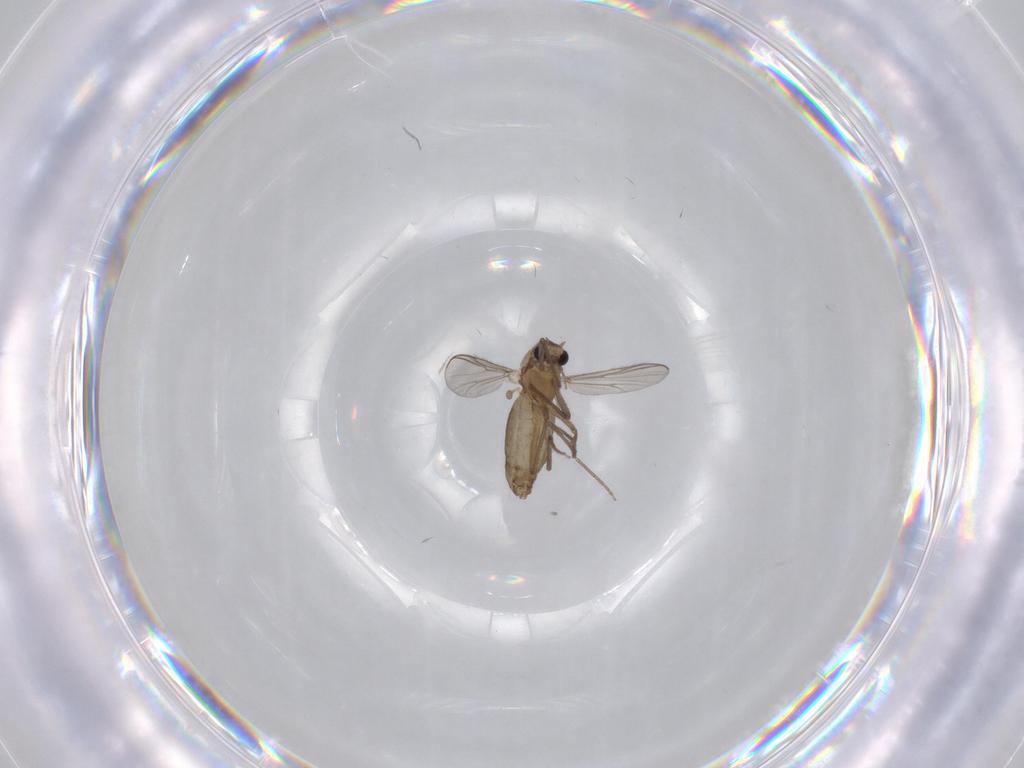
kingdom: Animalia
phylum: Arthropoda
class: Insecta
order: Diptera
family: Chironomidae
